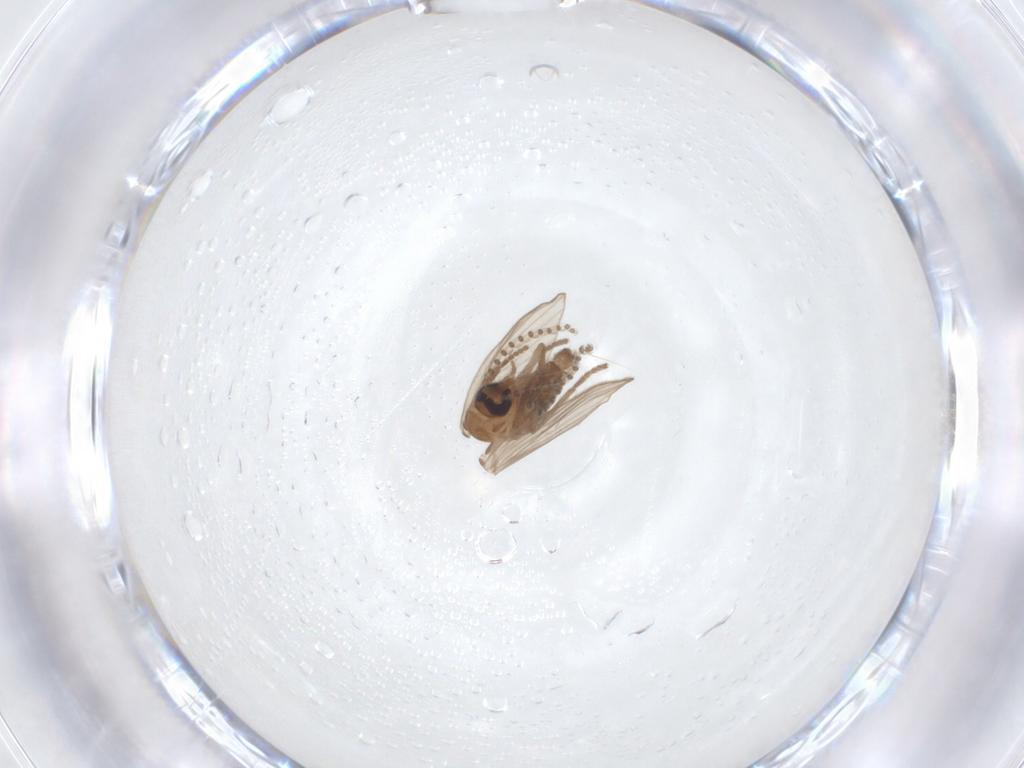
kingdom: Animalia
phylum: Arthropoda
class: Insecta
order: Diptera
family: Psychodidae
